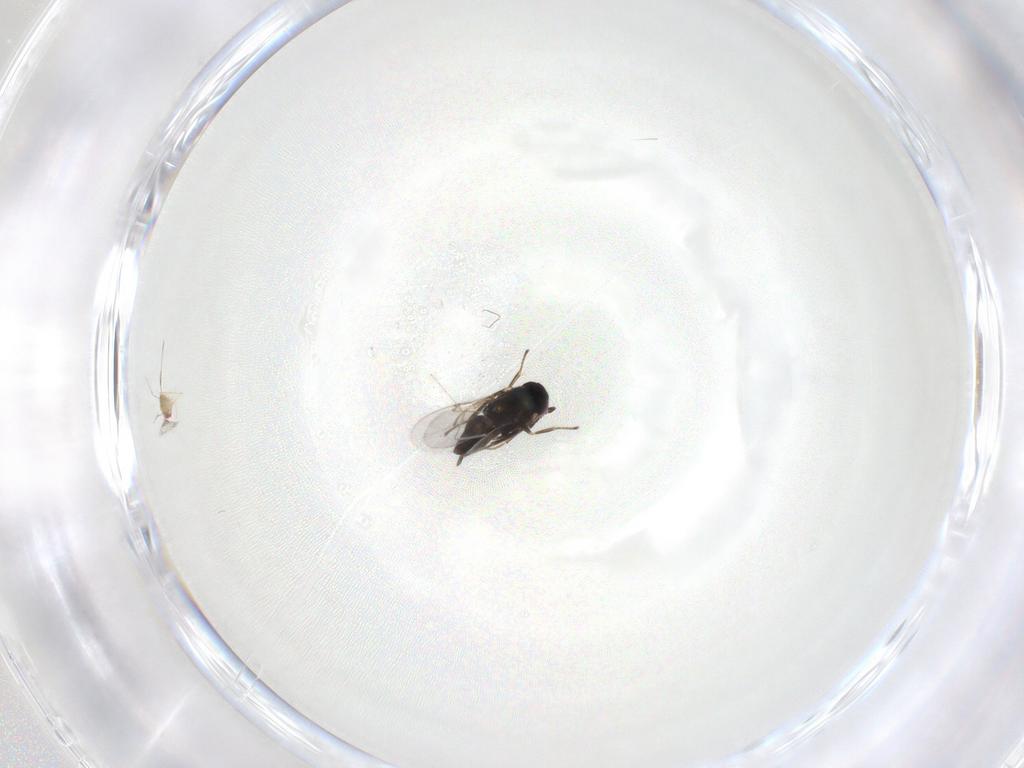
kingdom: Animalia
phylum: Arthropoda
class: Insecta
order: Hymenoptera
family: Encyrtidae
